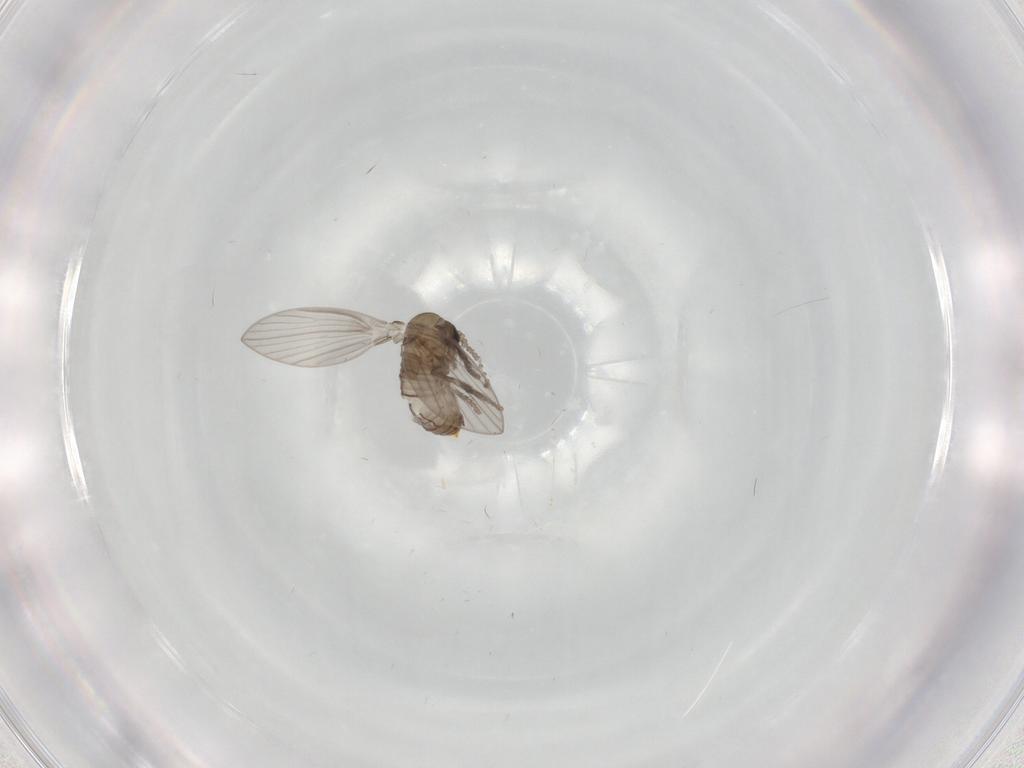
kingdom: Animalia
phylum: Arthropoda
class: Insecta
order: Diptera
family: Psychodidae
